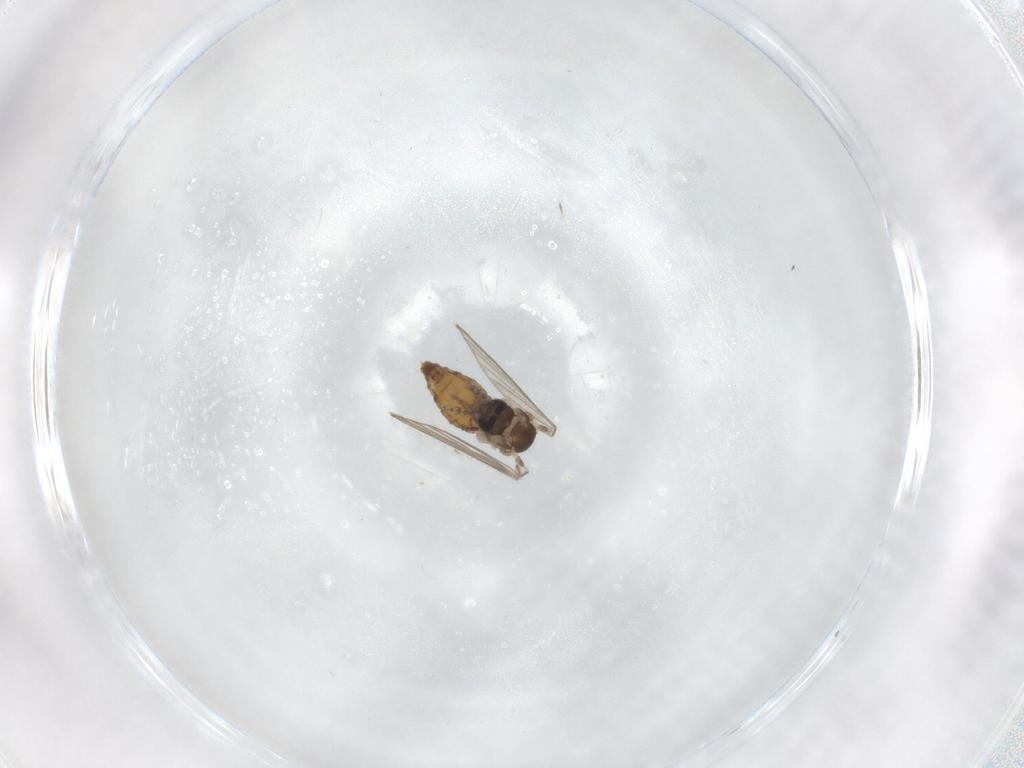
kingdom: Animalia
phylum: Arthropoda
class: Insecta
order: Diptera
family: Psychodidae
